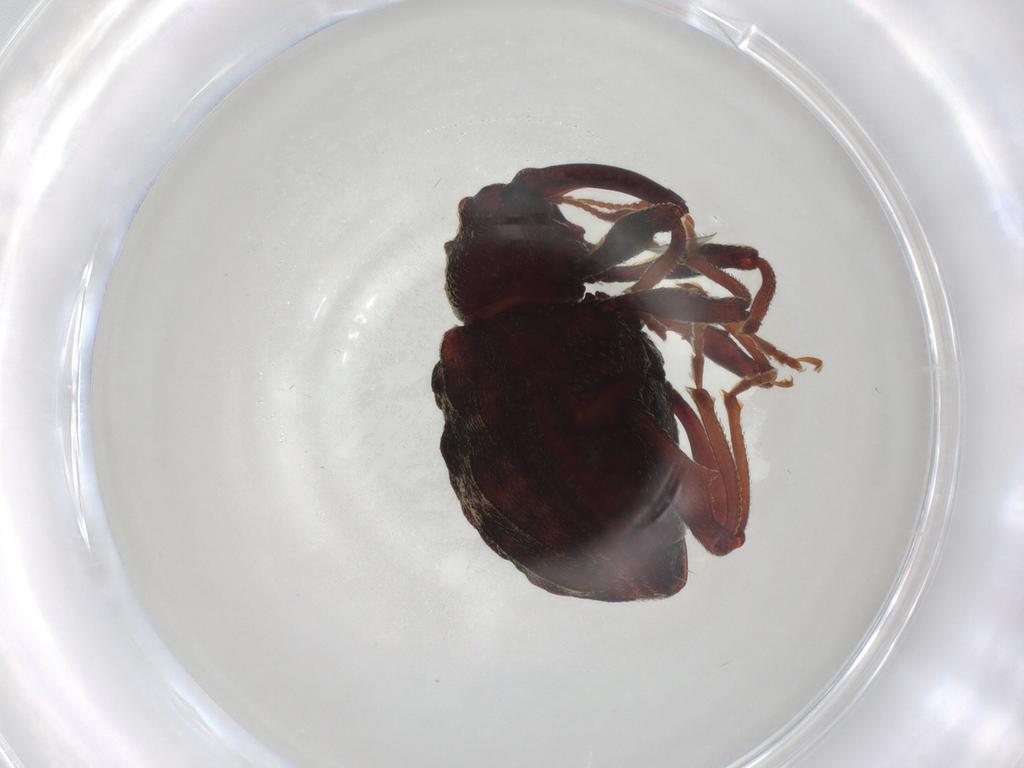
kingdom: Animalia
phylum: Arthropoda
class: Insecta
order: Coleoptera
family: Curculionidae
